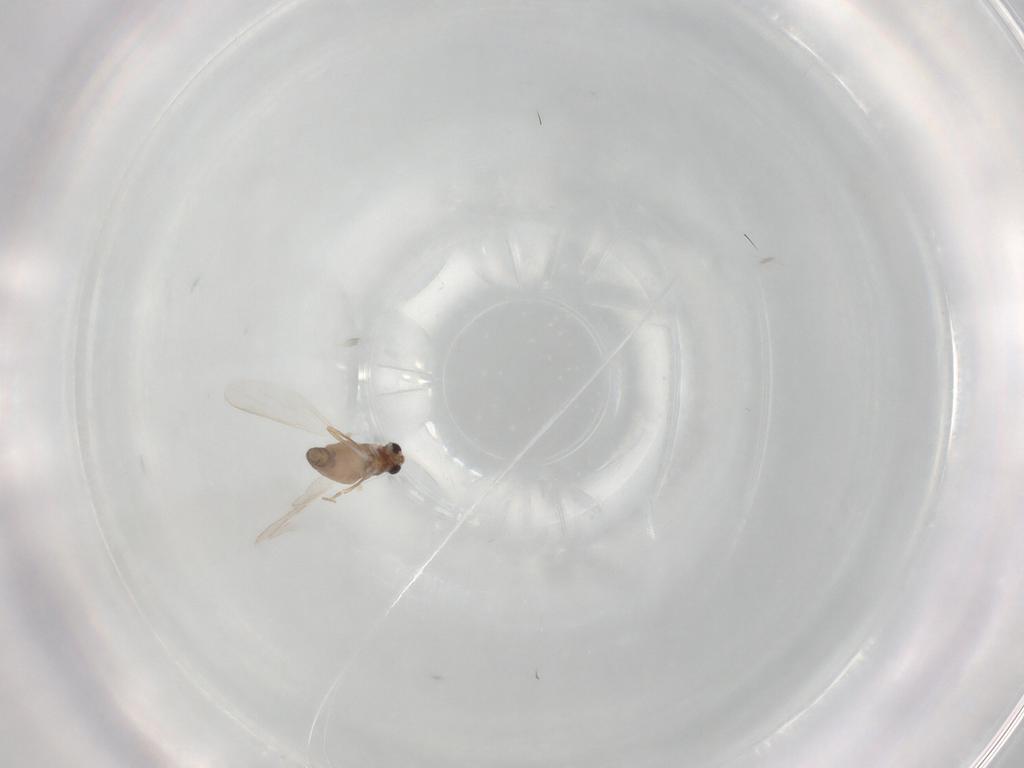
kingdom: Animalia
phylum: Arthropoda
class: Insecta
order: Diptera
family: Chironomidae
